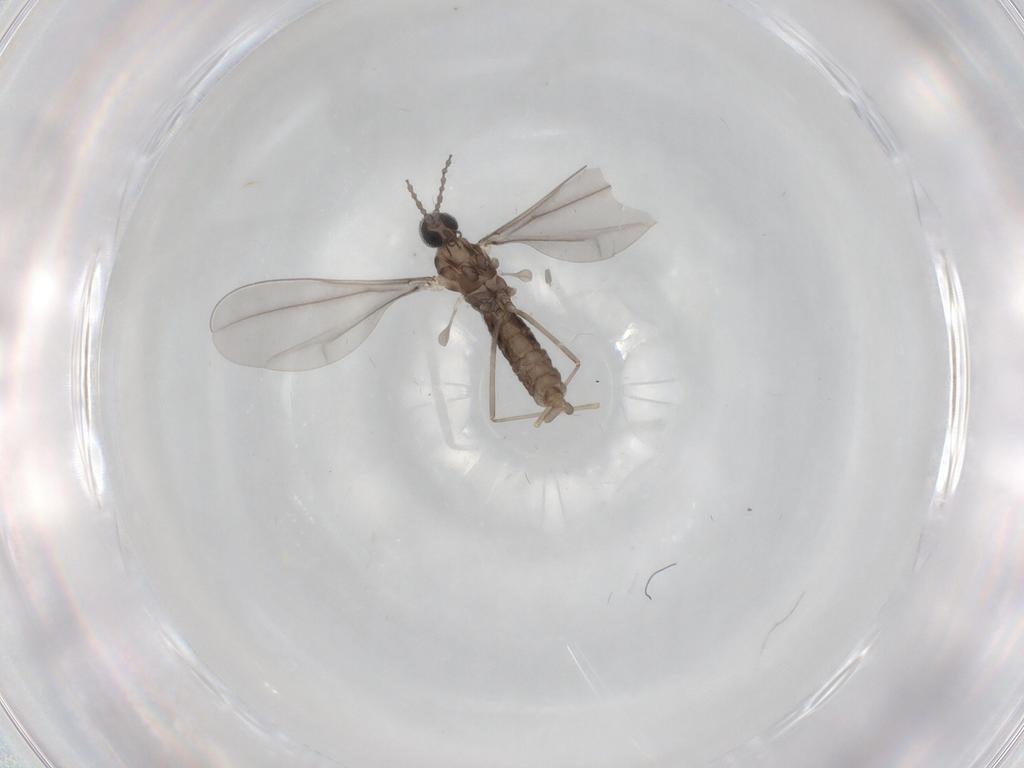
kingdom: Animalia
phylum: Arthropoda
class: Insecta
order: Diptera
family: Cecidomyiidae
